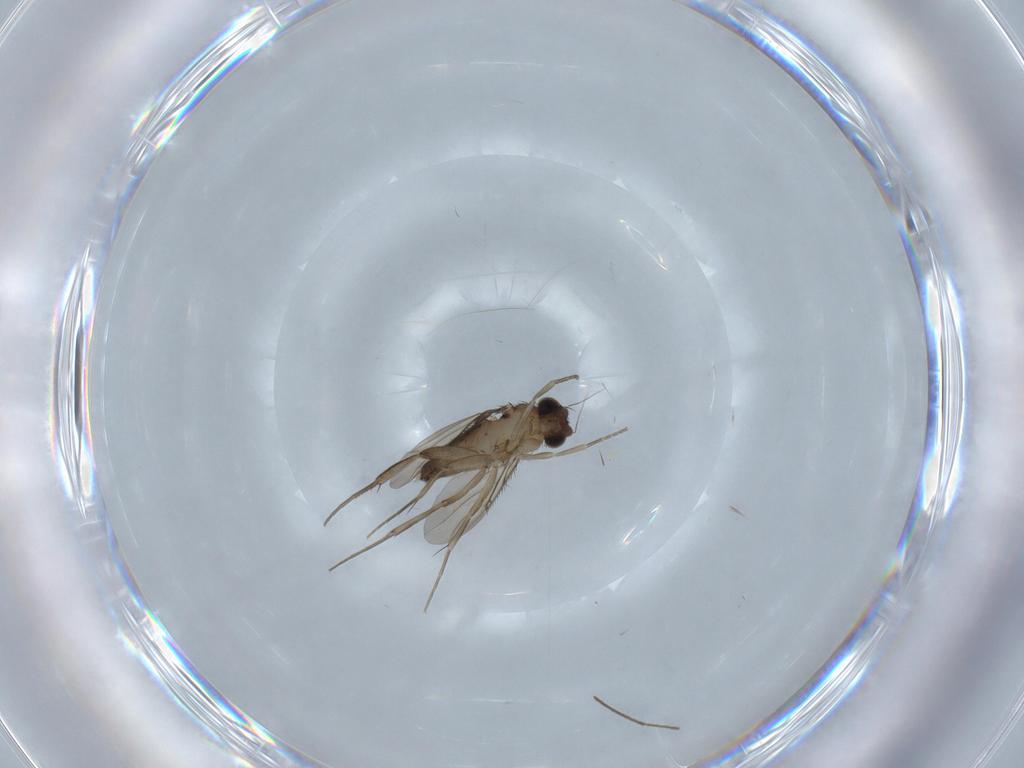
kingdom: Animalia
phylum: Arthropoda
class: Insecta
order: Diptera
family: Phoridae
